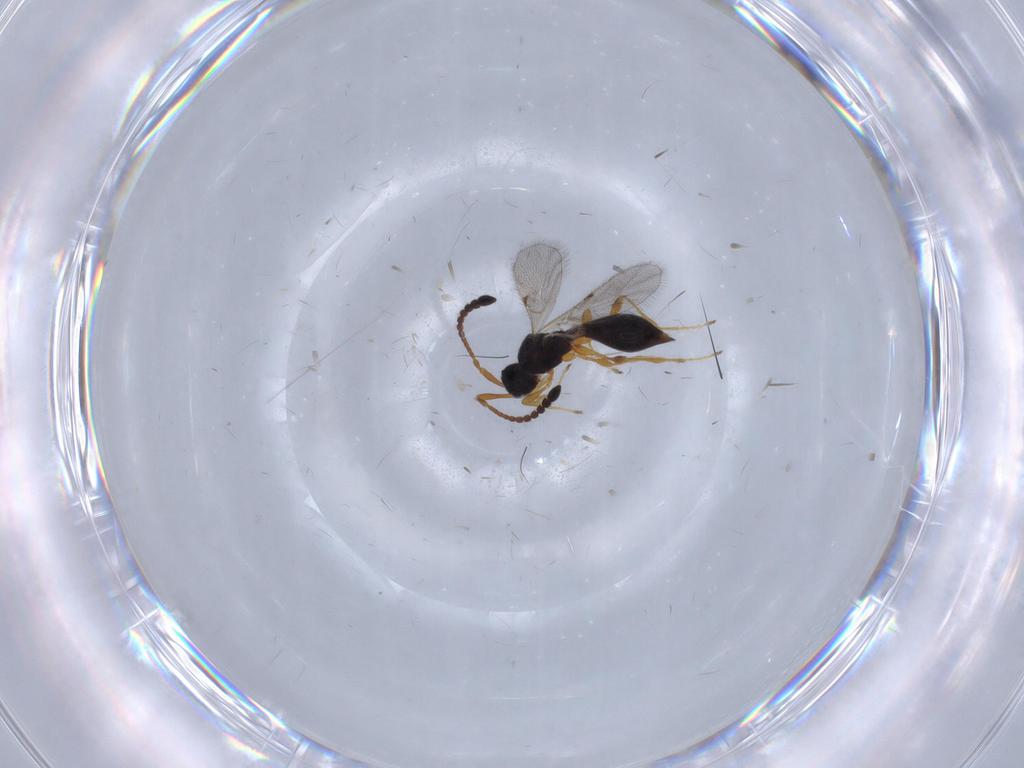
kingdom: Animalia
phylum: Arthropoda
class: Insecta
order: Hymenoptera
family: Diapriidae
